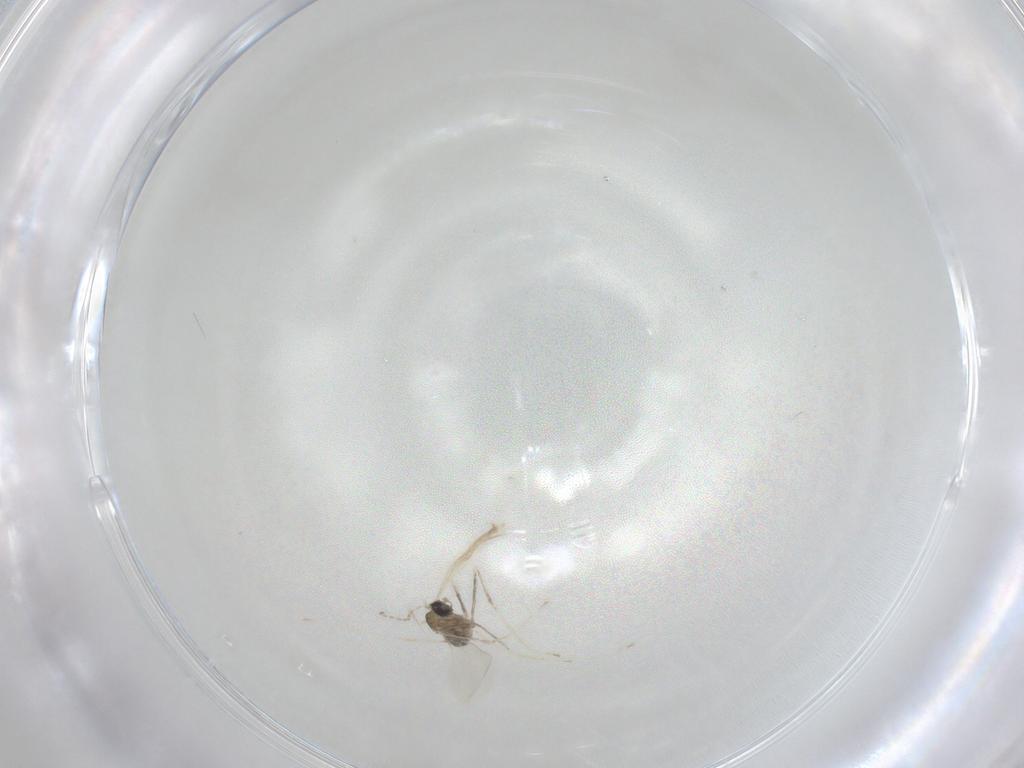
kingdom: Animalia
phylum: Arthropoda
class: Insecta
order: Diptera
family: Cecidomyiidae
